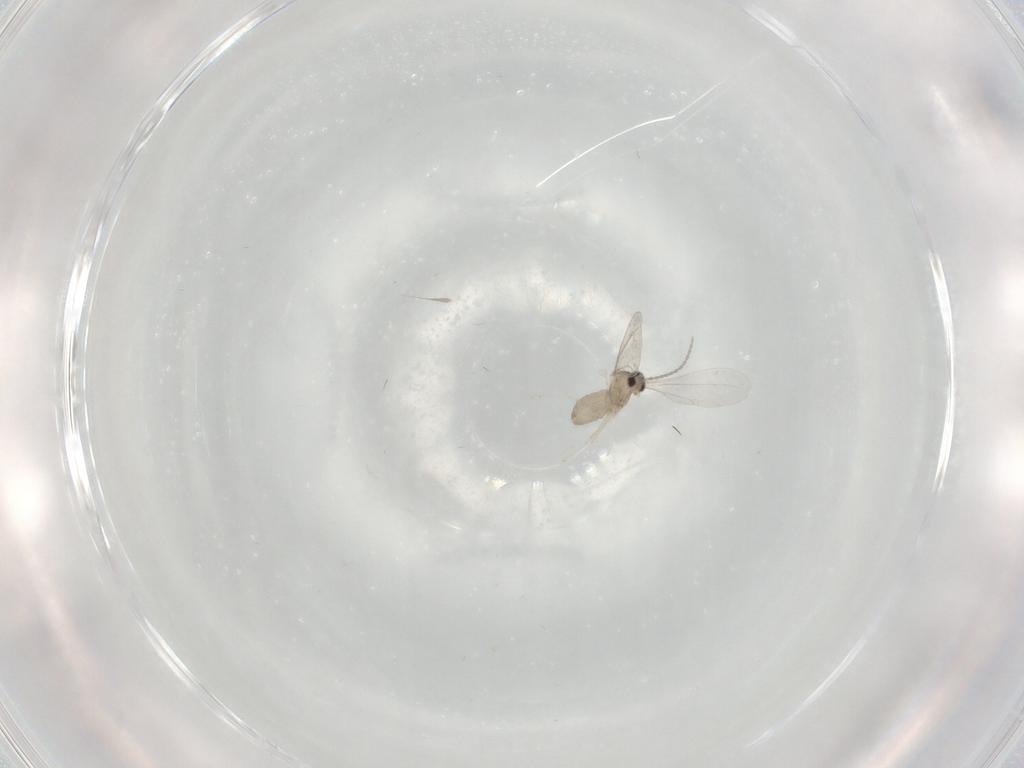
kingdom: Animalia
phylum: Arthropoda
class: Insecta
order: Diptera
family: Cecidomyiidae
